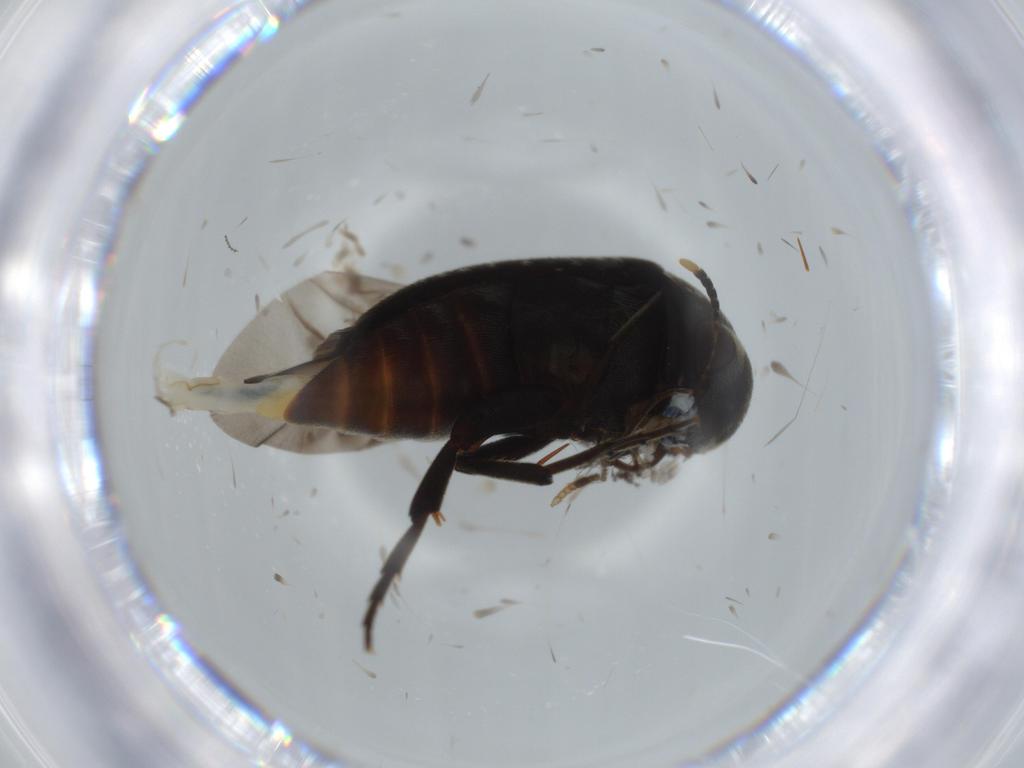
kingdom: Animalia
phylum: Arthropoda
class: Insecta
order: Coleoptera
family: Mordellidae
